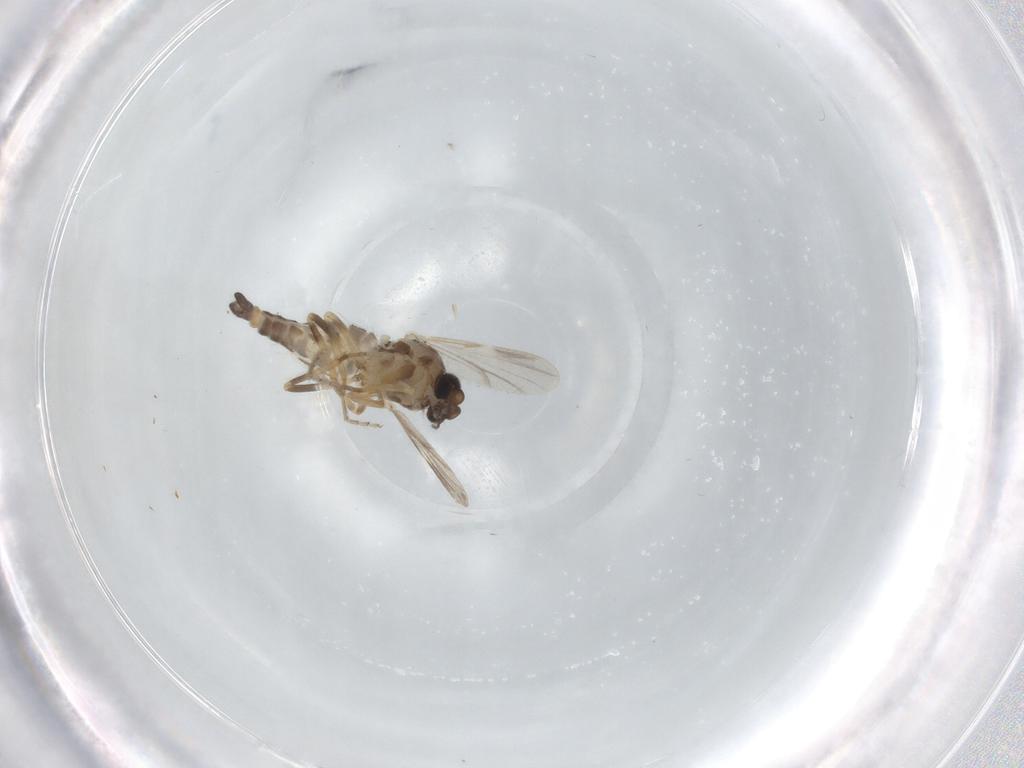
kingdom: Animalia
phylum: Arthropoda
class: Insecta
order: Diptera
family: Ceratopogonidae
